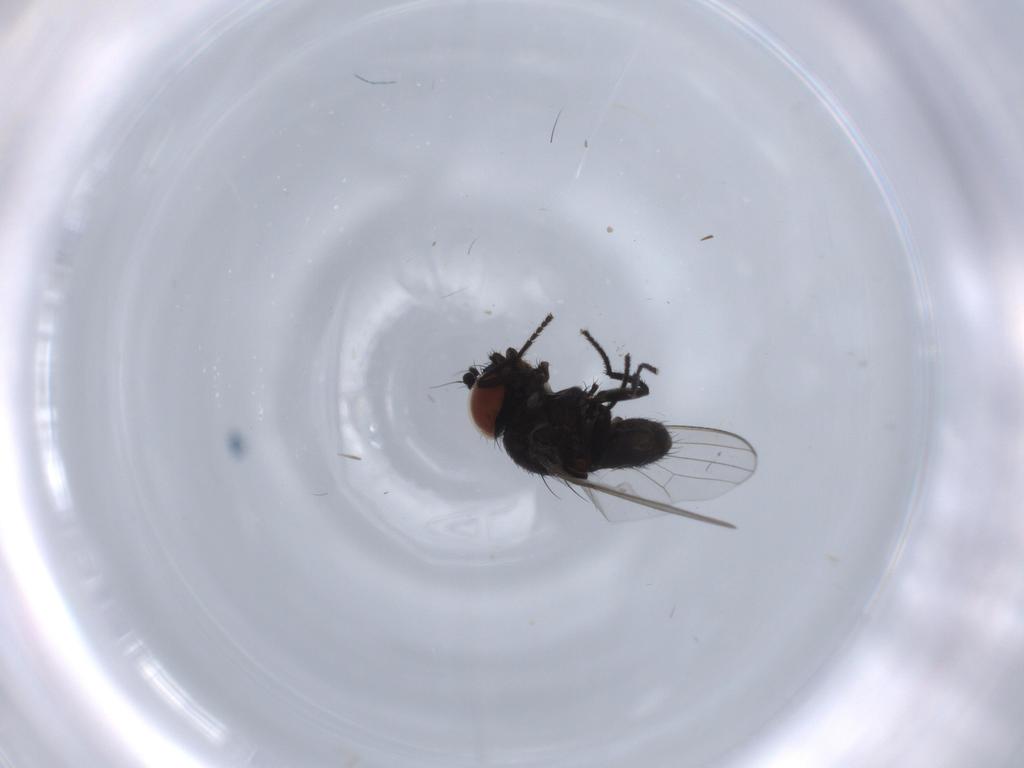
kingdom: Animalia
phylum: Arthropoda
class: Insecta
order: Diptera
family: Milichiidae
